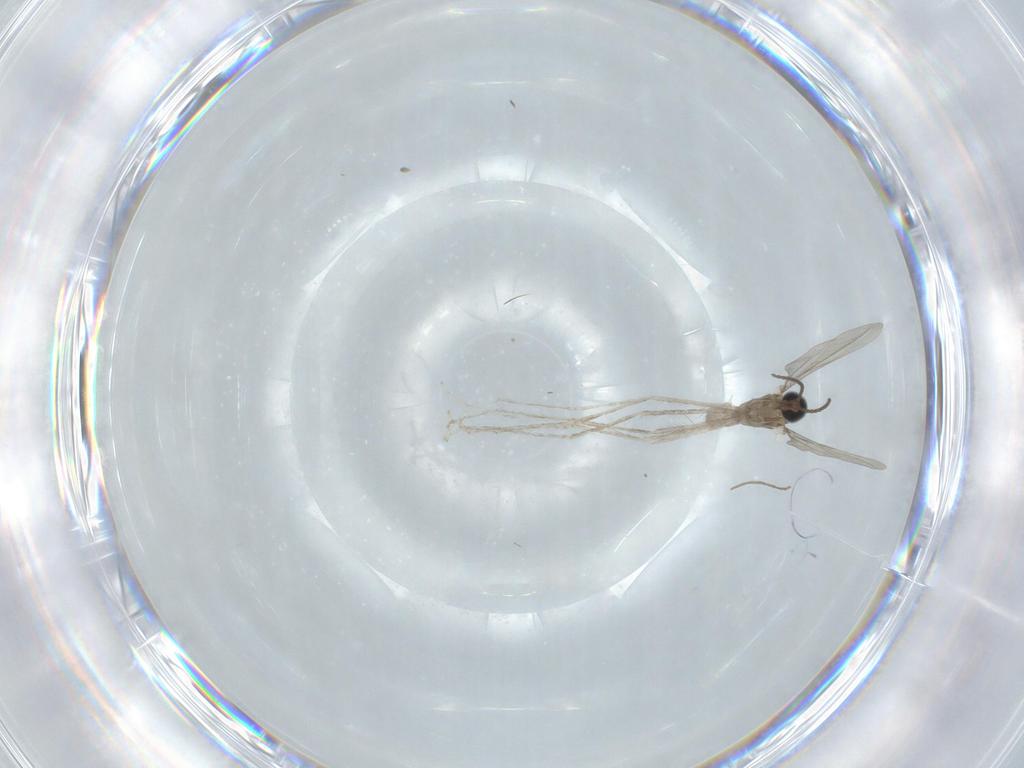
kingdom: Animalia
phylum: Arthropoda
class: Insecta
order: Diptera
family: Cecidomyiidae
